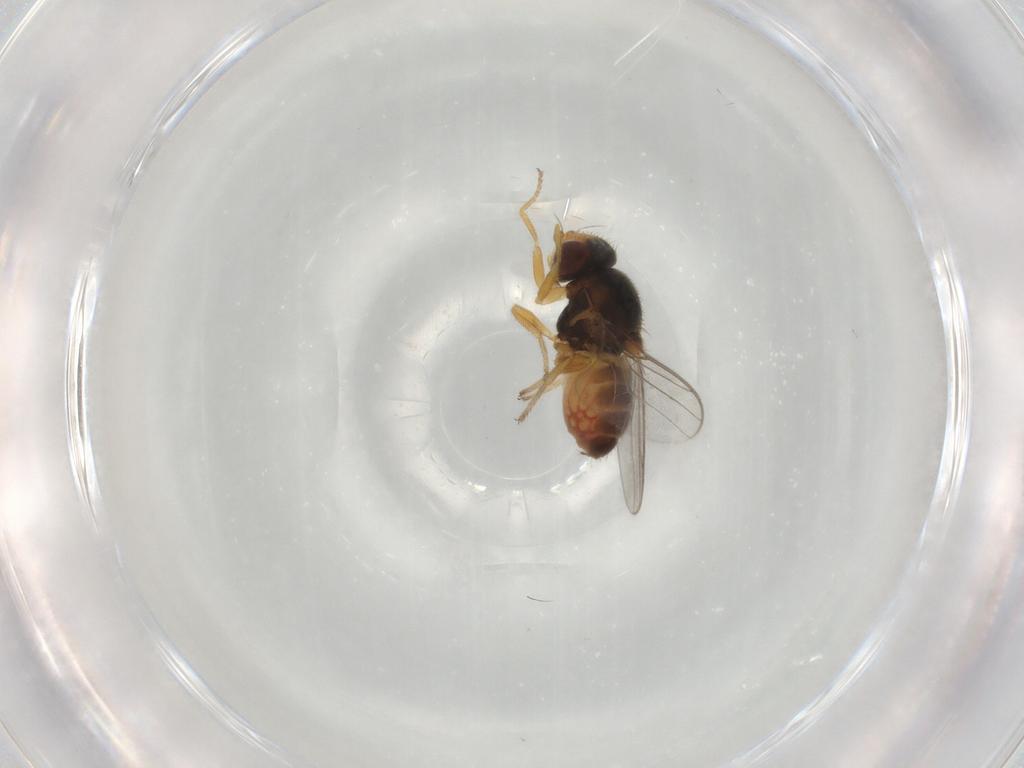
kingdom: Animalia
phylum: Arthropoda
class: Insecta
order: Diptera
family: Chloropidae
